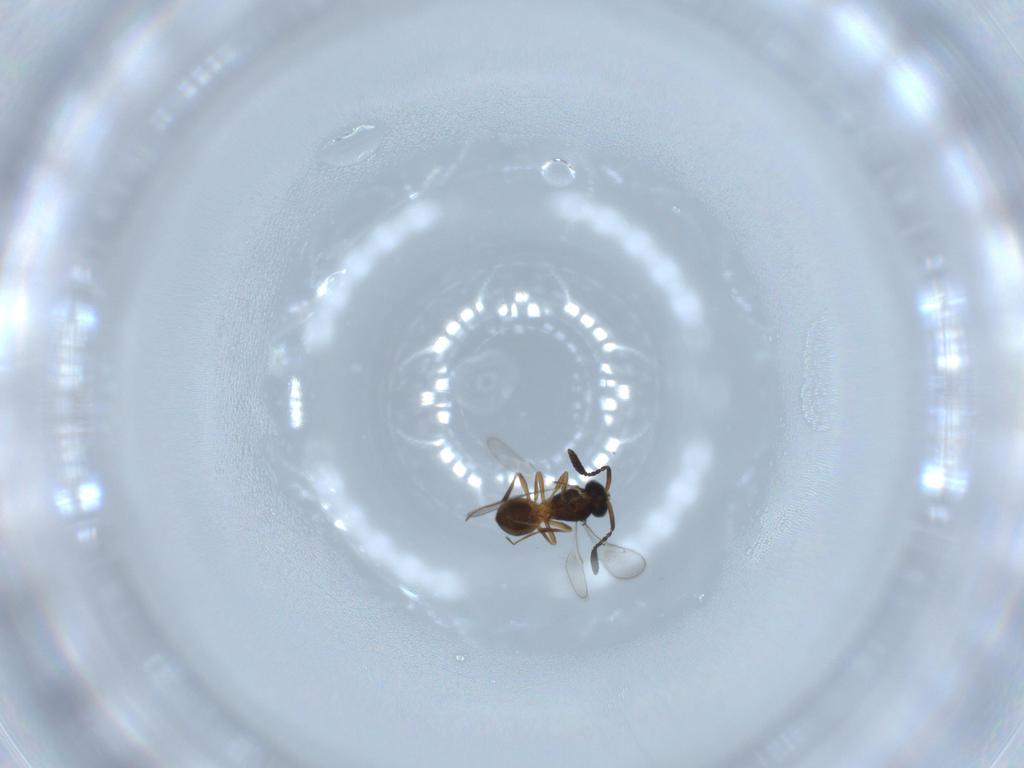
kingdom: Animalia
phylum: Arthropoda
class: Insecta
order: Hymenoptera
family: Scelionidae
